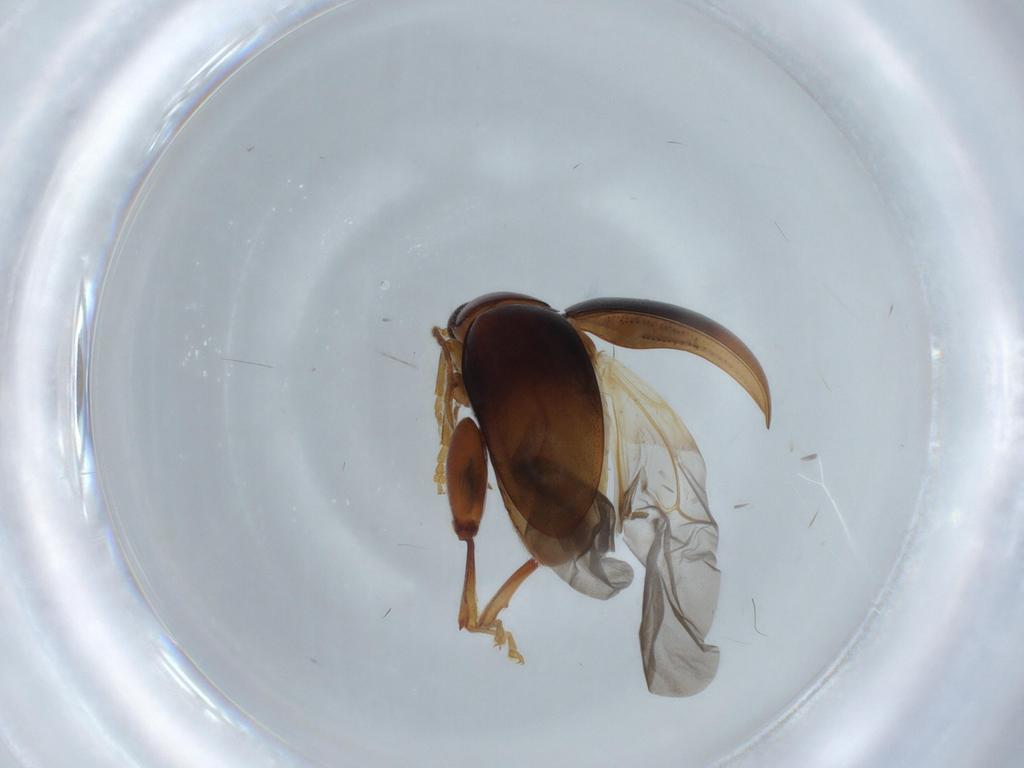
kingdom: Animalia
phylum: Arthropoda
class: Insecta
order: Coleoptera
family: Chrysomelidae
